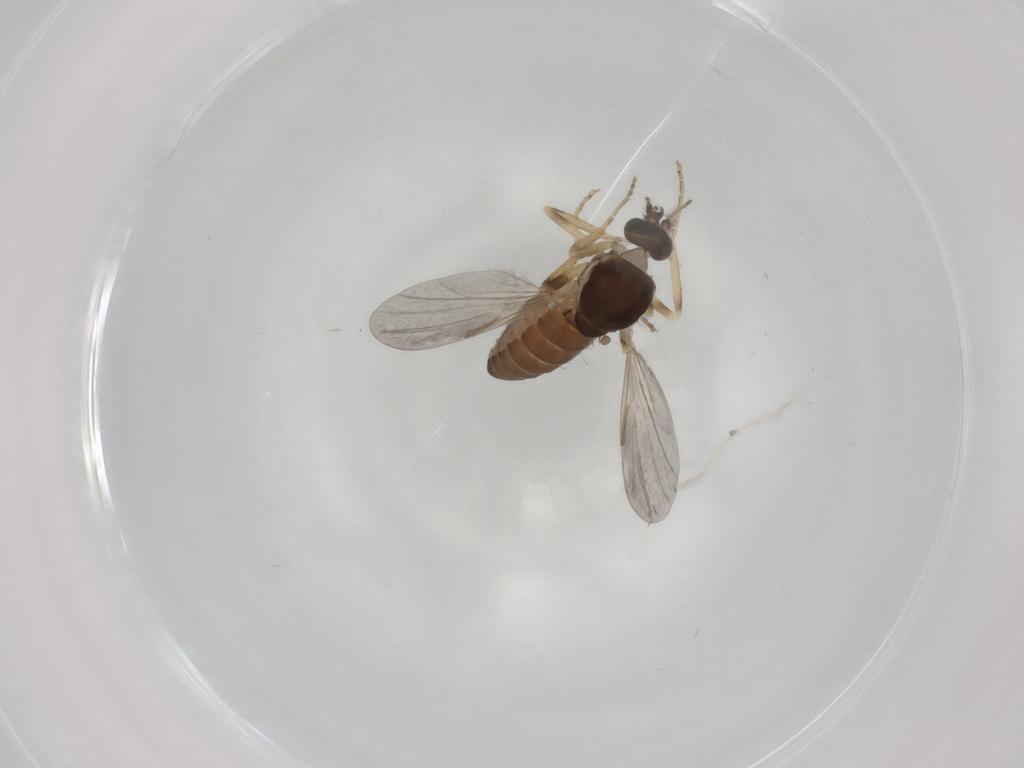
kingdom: Animalia
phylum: Arthropoda
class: Insecta
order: Diptera
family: Ceratopogonidae
